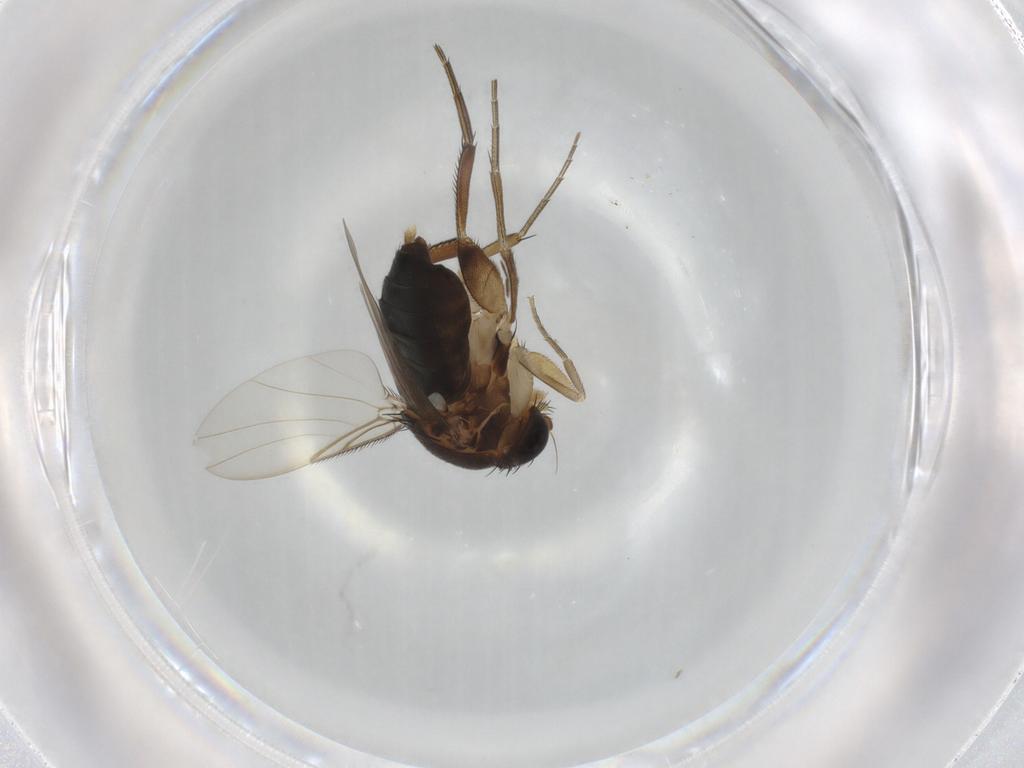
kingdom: Animalia
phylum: Arthropoda
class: Insecta
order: Diptera
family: Phoridae
